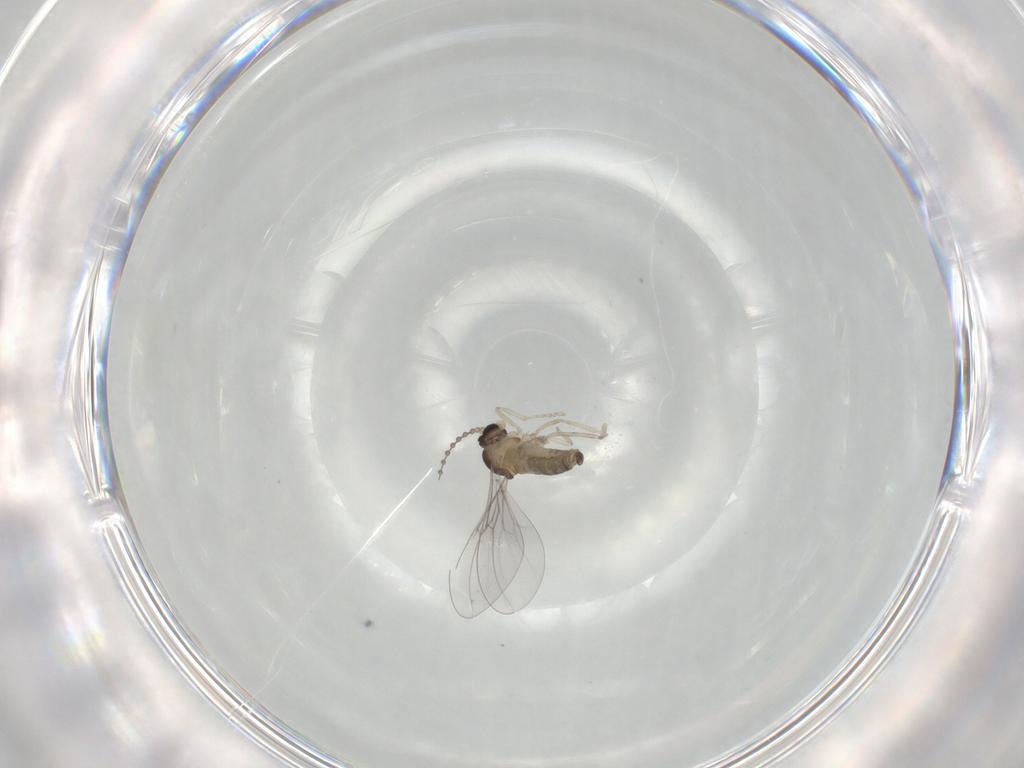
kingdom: Animalia
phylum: Arthropoda
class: Insecta
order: Diptera
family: Cecidomyiidae
